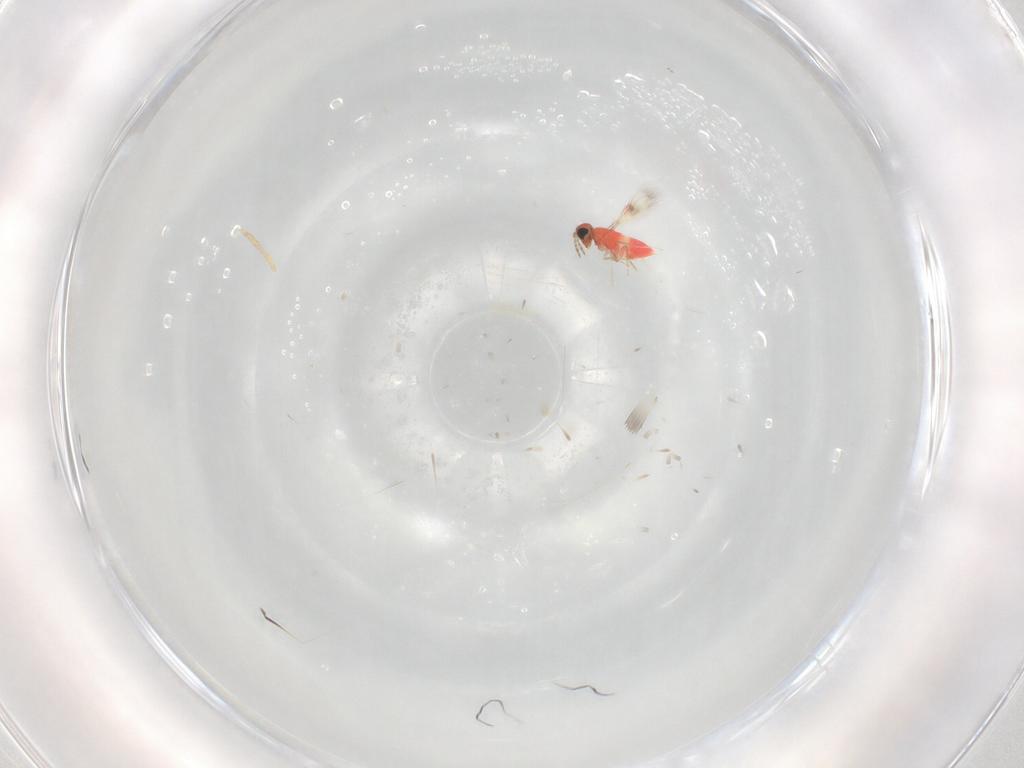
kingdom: Animalia
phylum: Arthropoda
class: Insecta
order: Hymenoptera
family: Trichogrammatidae
